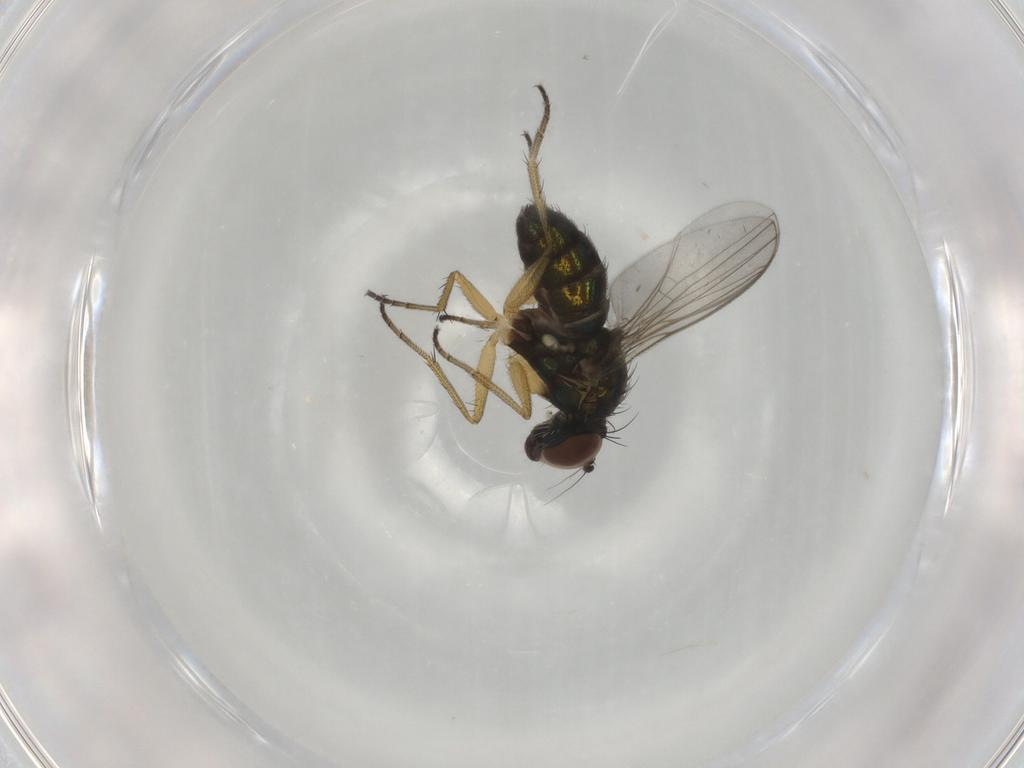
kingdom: Animalia
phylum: Arthropoda
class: Insecta
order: Diptera
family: Dolichopodidae
